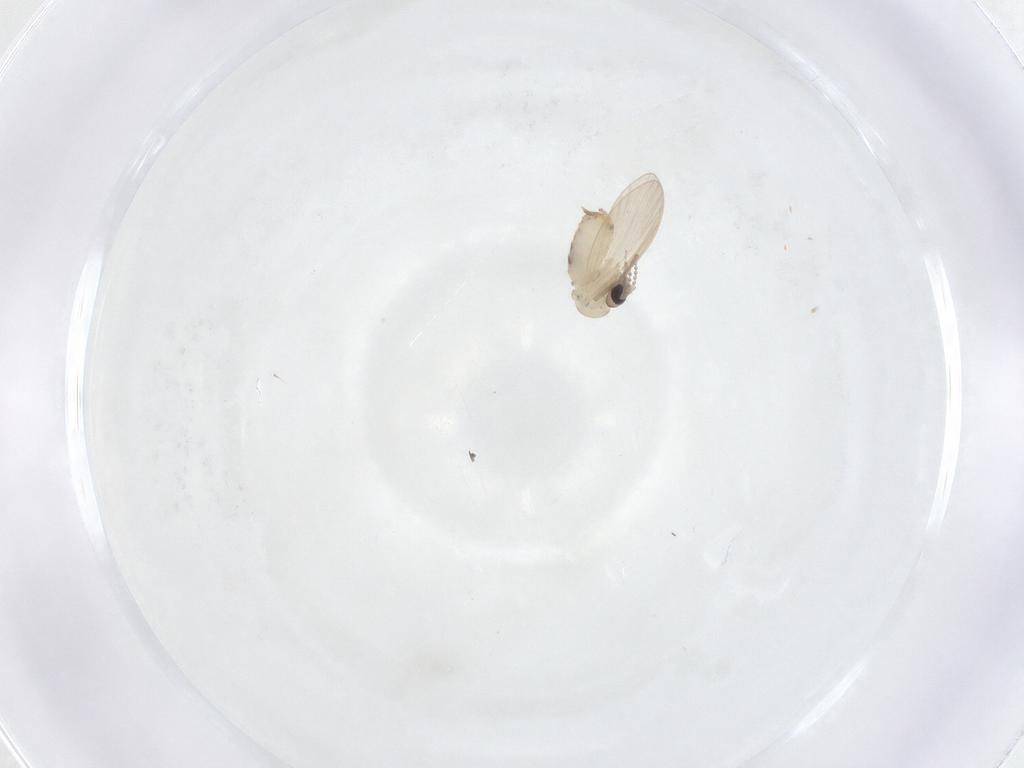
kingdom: Animalia
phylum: Arthropoda
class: Insecta
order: Diptera
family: Psychodidae
